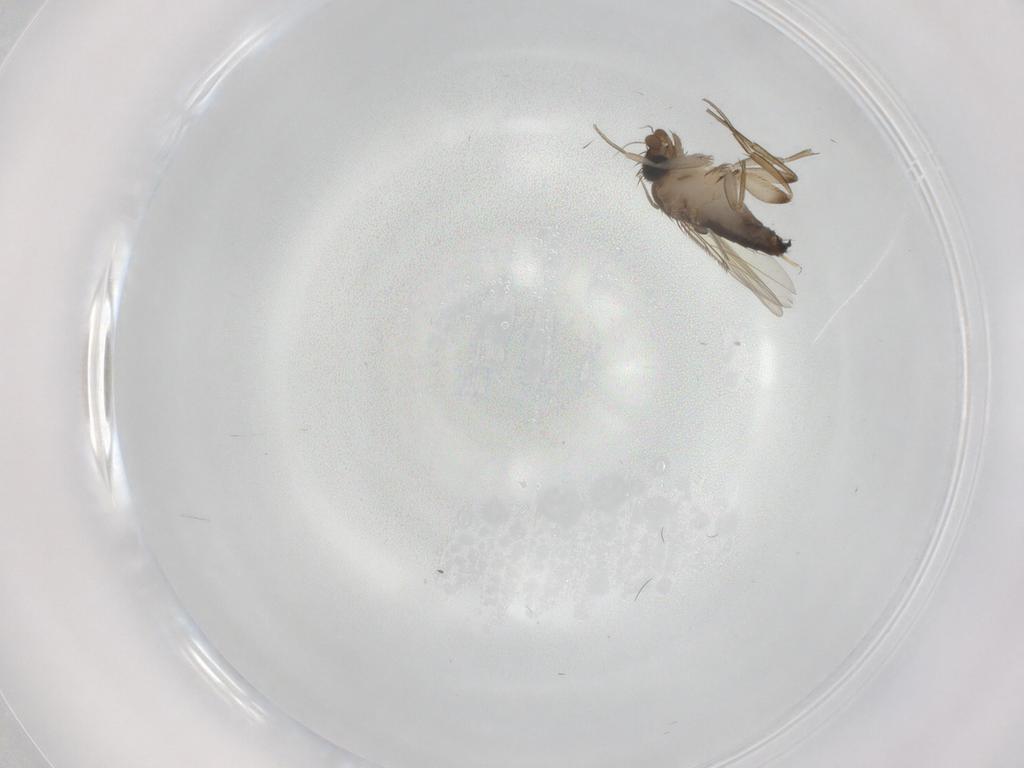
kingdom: Animalia
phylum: Arthropoda
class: Insecta
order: Diptera
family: Phoridae
